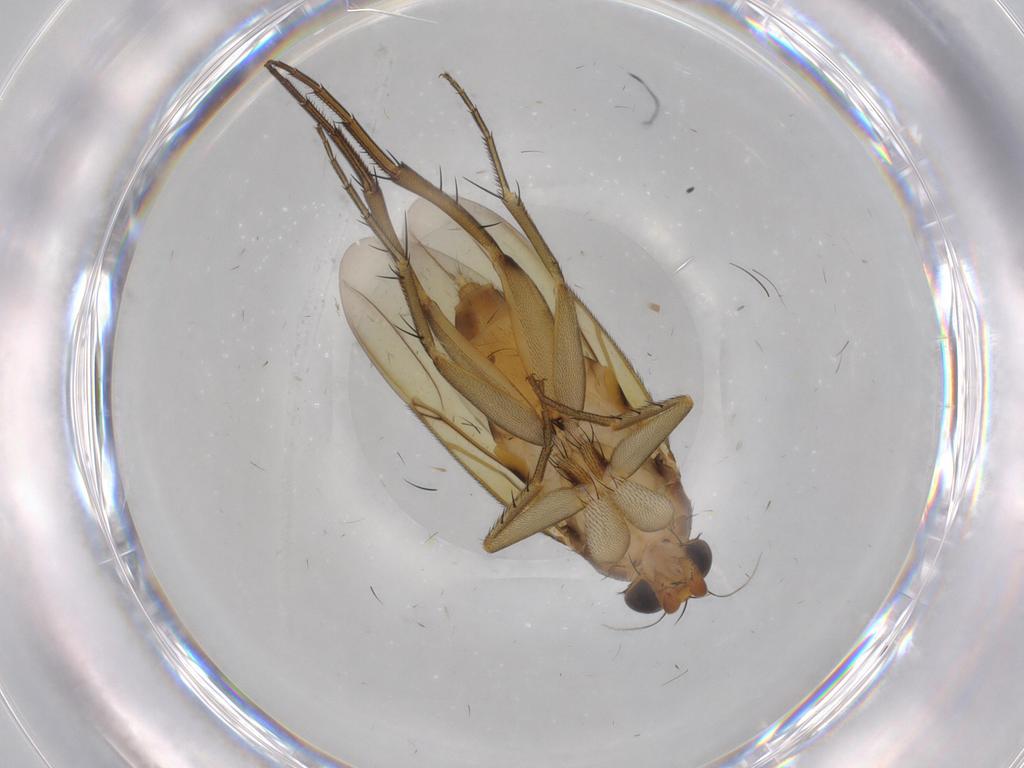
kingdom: Animalia
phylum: Arthropoda
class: Insecta
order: Diptera
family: Phoridae
